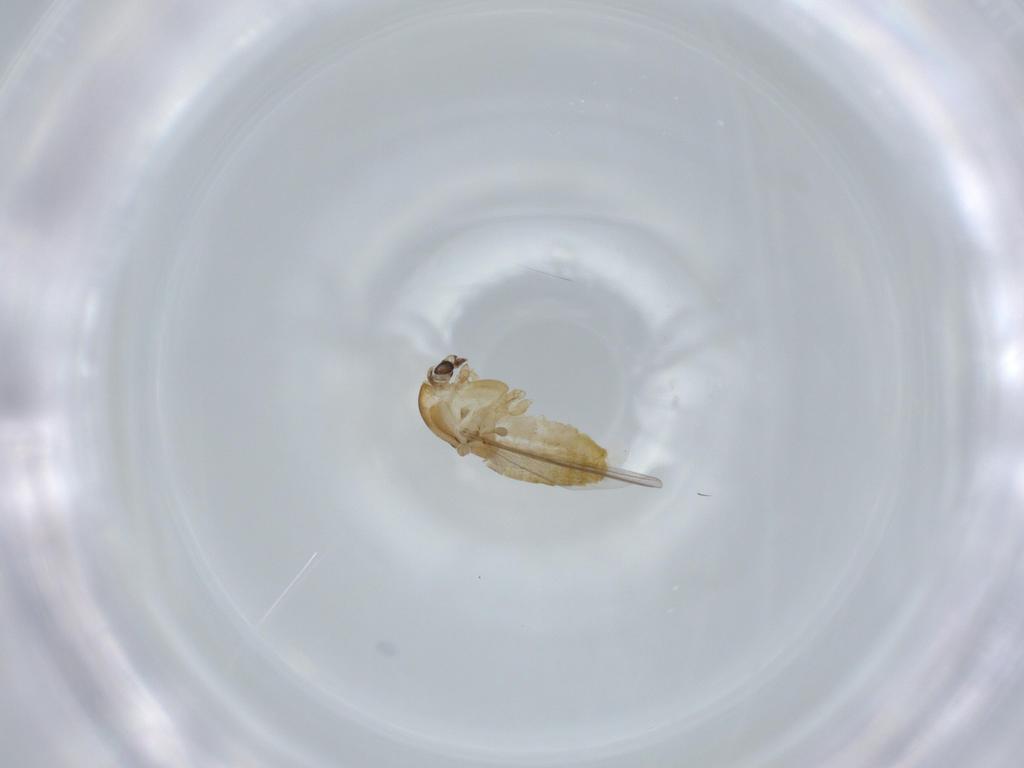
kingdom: Animalia
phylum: Arthropoda
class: Insecta
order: Diptera
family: Chironomidae
